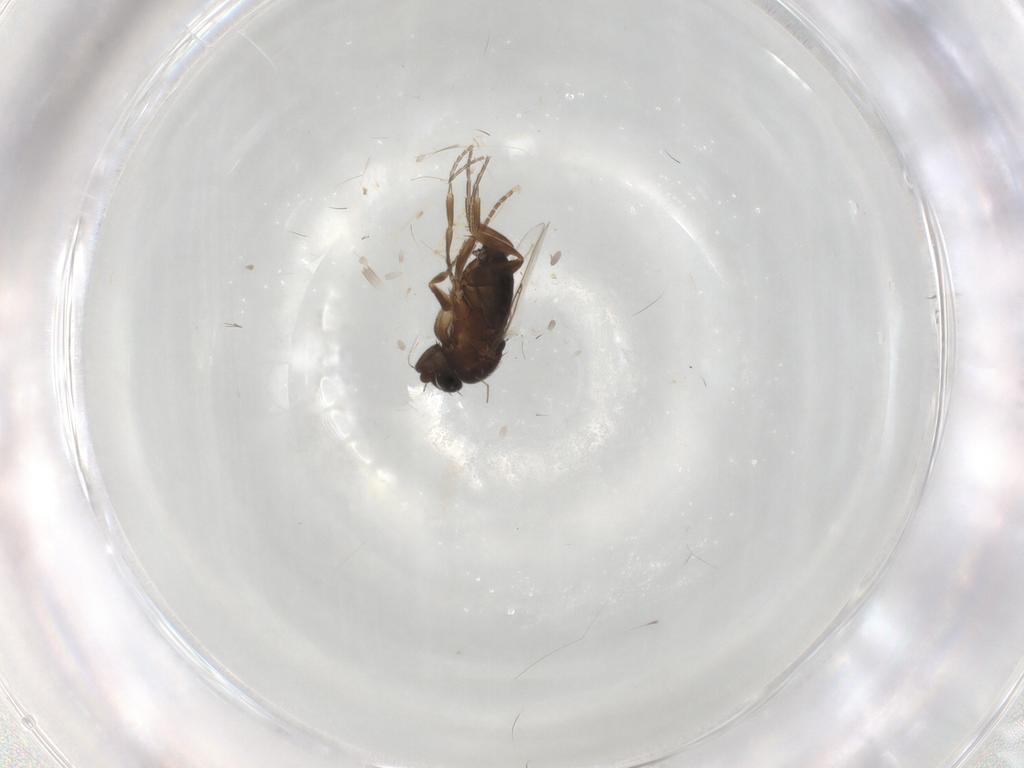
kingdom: Animalia
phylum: Arthropoda
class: Insecta
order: Diptera
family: Phoridae
